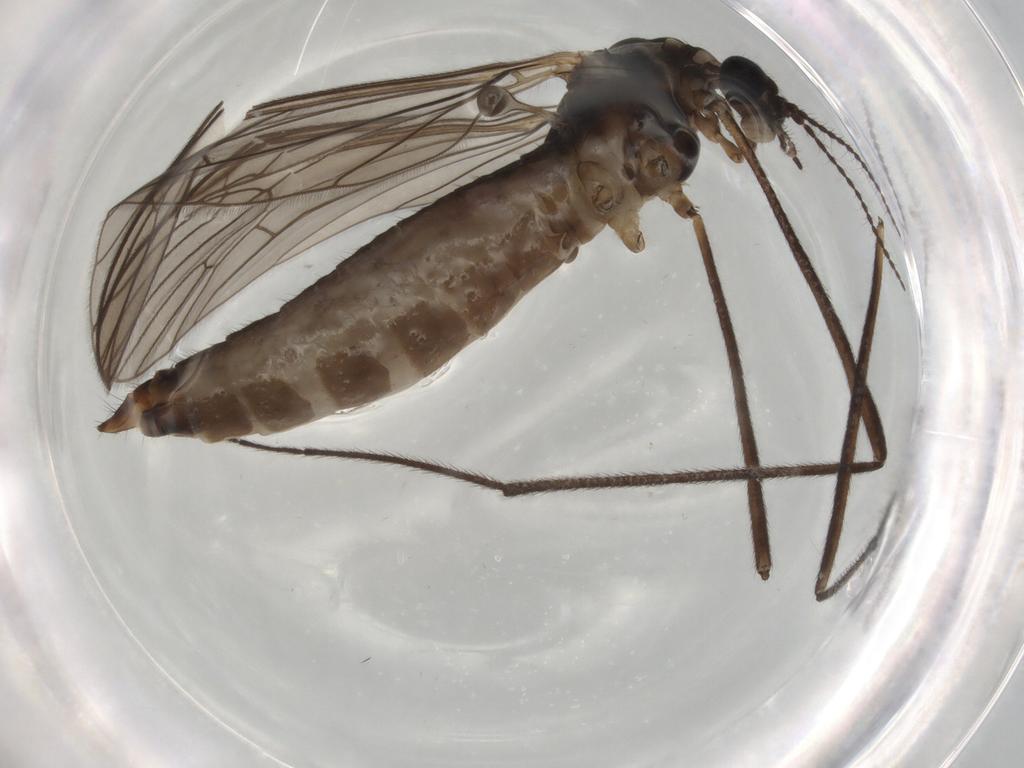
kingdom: Animalia
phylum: Arthropoda
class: Insecta
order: Diptera
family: Limoniidae
